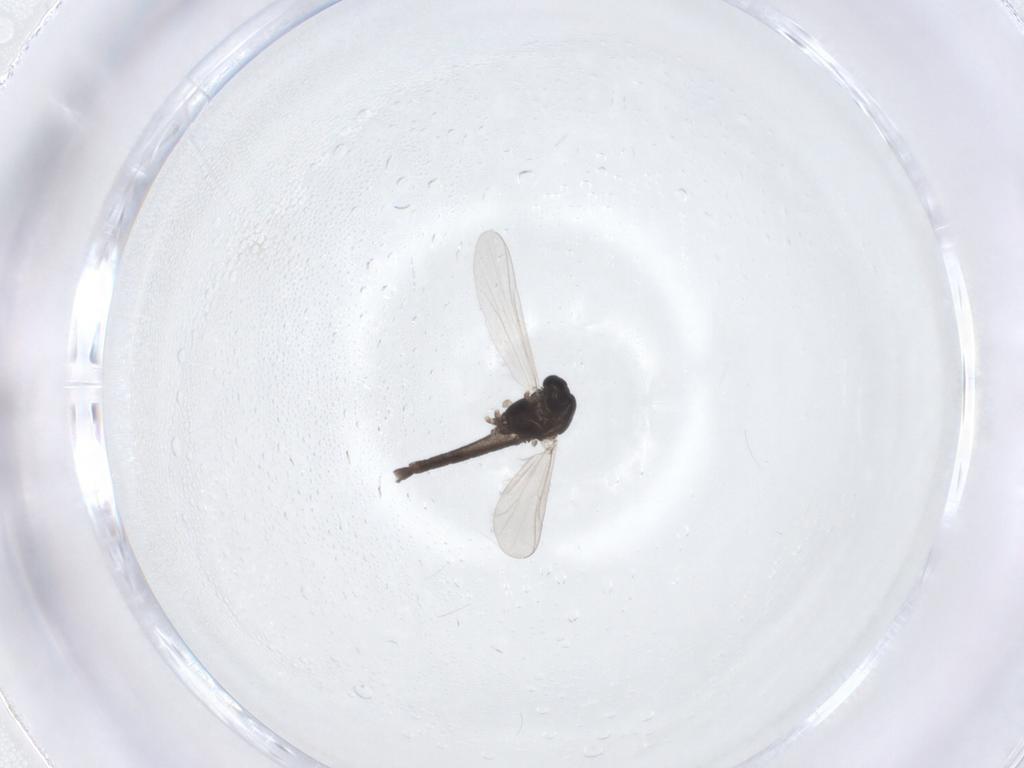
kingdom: Animalia
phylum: Arthropoda
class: Insecta
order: Diptera
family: Chironomidae
